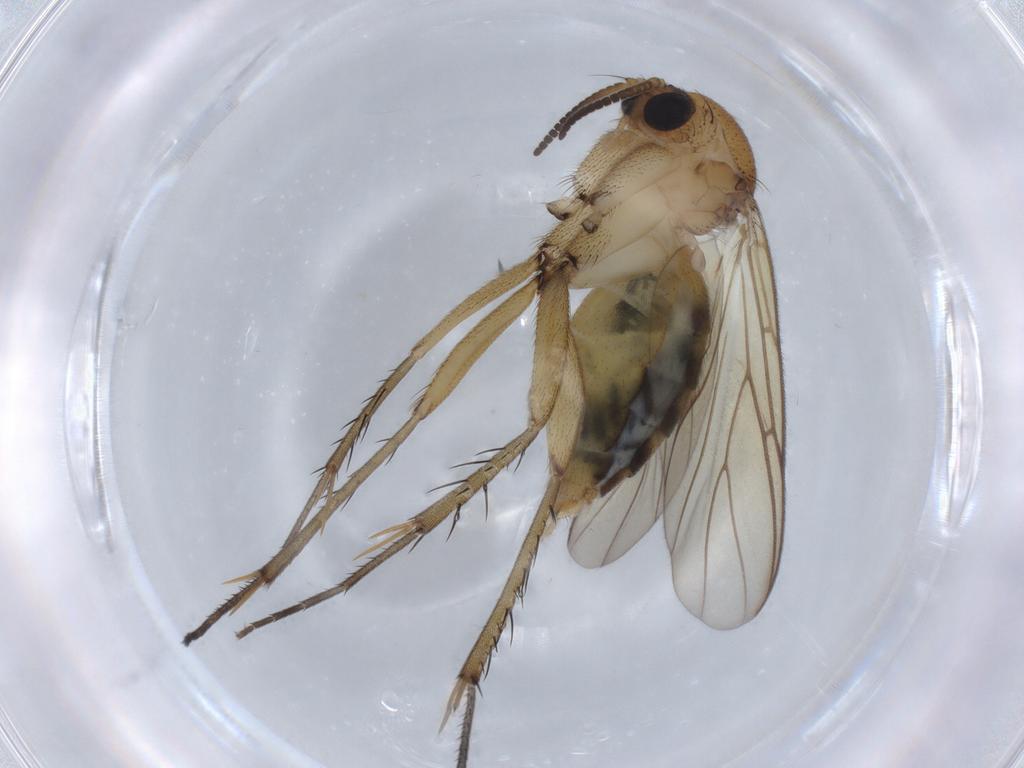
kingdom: Animalia
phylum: Arthropoda
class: Insecta
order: Diptera
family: Mycetophilidae
